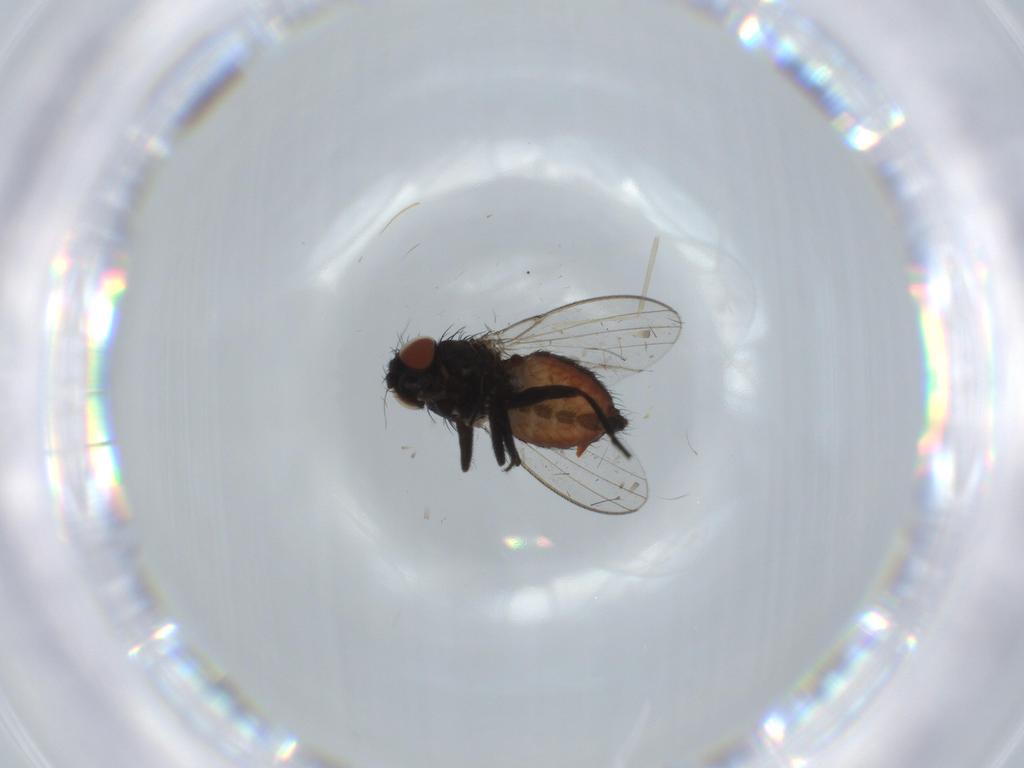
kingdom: Animalia
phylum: Arthropoda
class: Insecta
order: Diptera
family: Milichiidae
